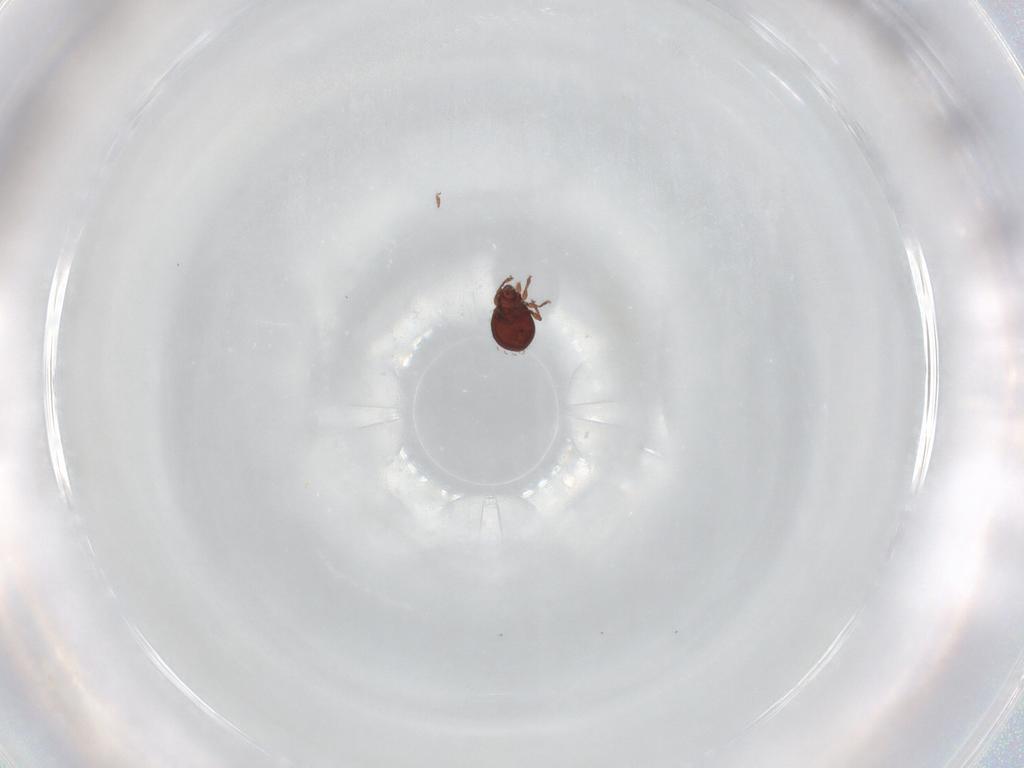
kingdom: Animalia
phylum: Arthropoda
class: Arachnida
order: Sarcoptiformes
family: Scheloribatidae
